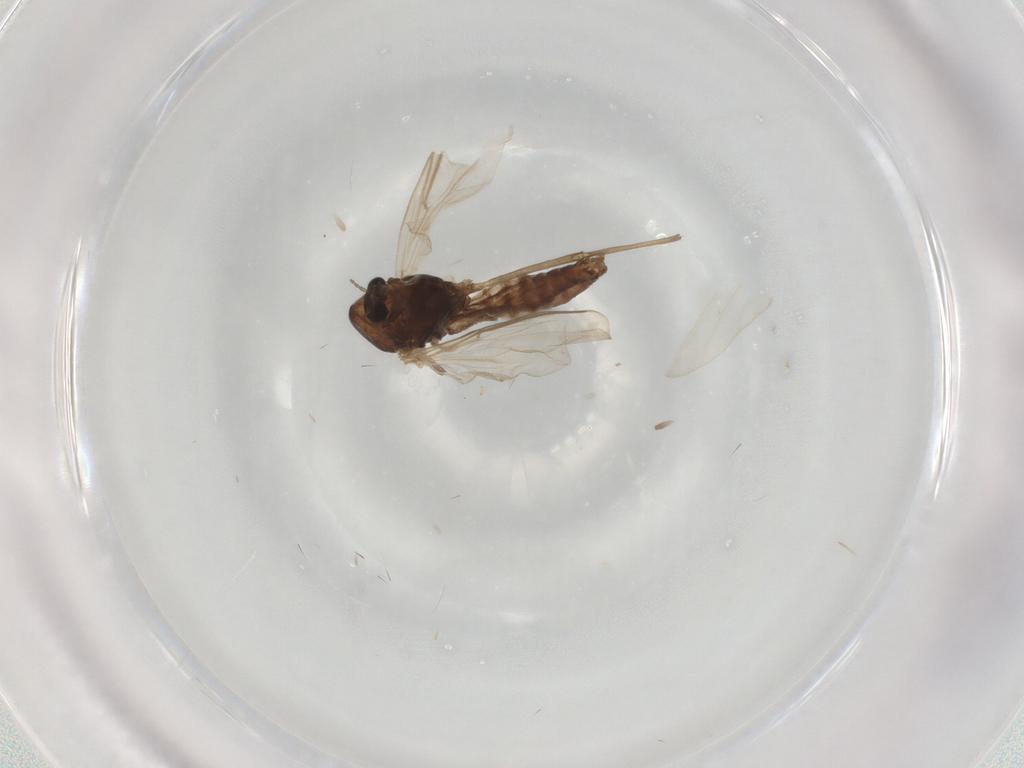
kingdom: Animalia
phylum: Arthropoda
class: Insecta
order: Diptera
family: Chironomidae
